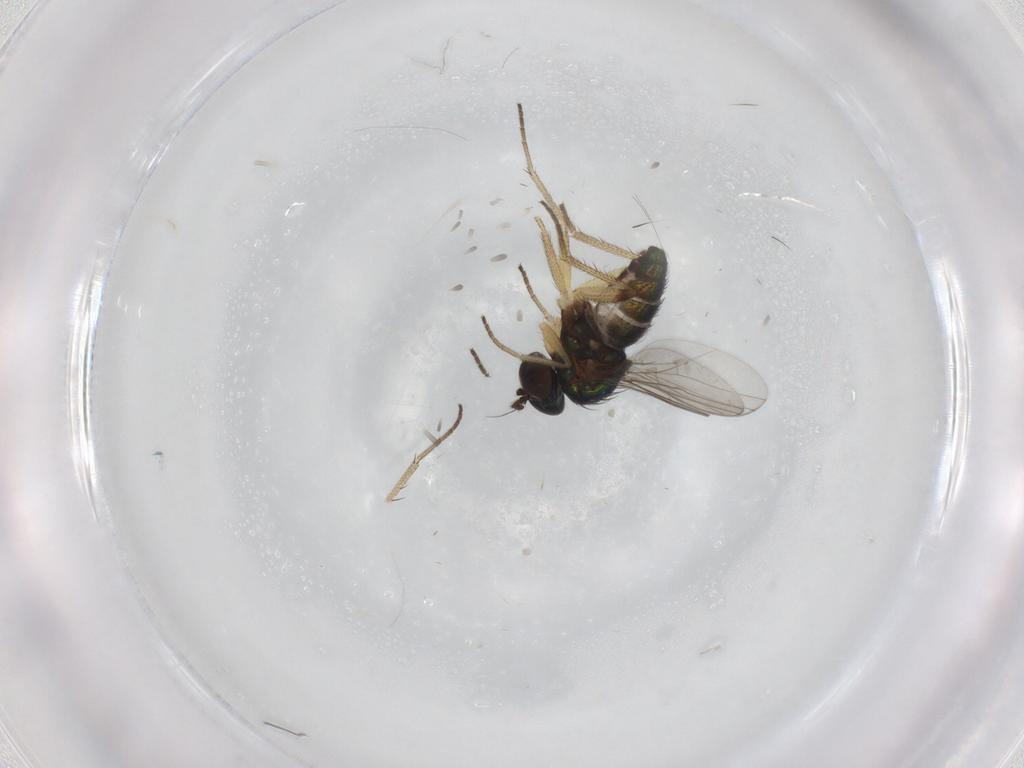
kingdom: Animalia
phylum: Arthropoda
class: Insecta
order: Diptera
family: Dolichopodidae
